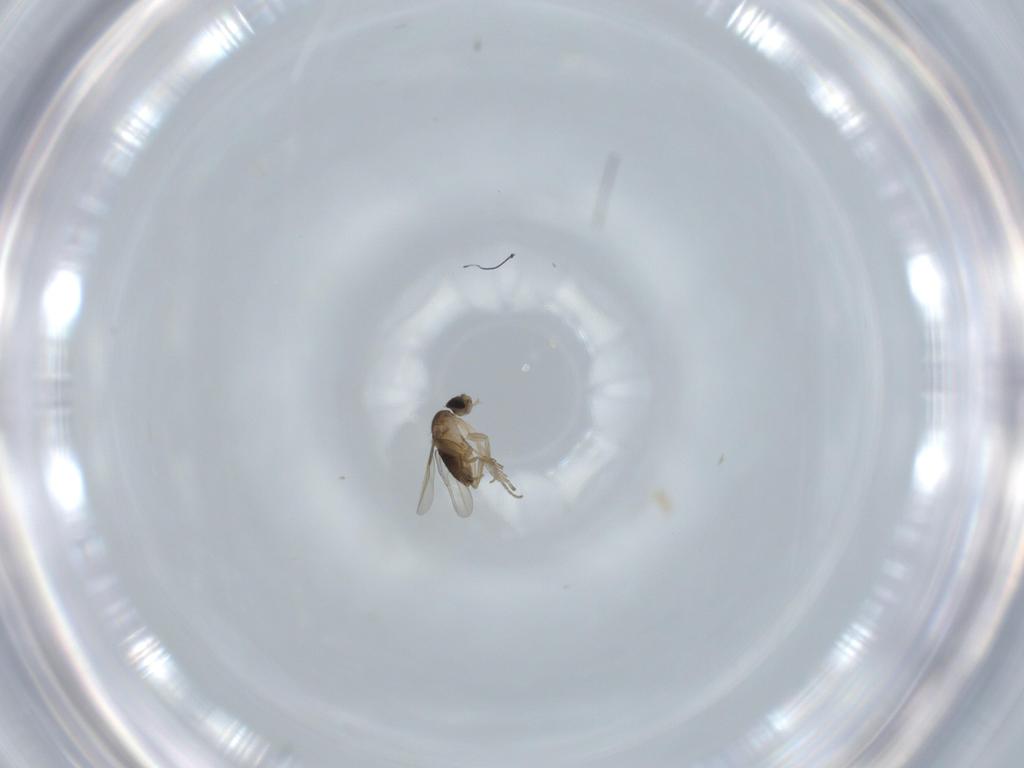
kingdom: Animalia
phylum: Arthropoda
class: Insecta
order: Diptera
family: Phoridae
